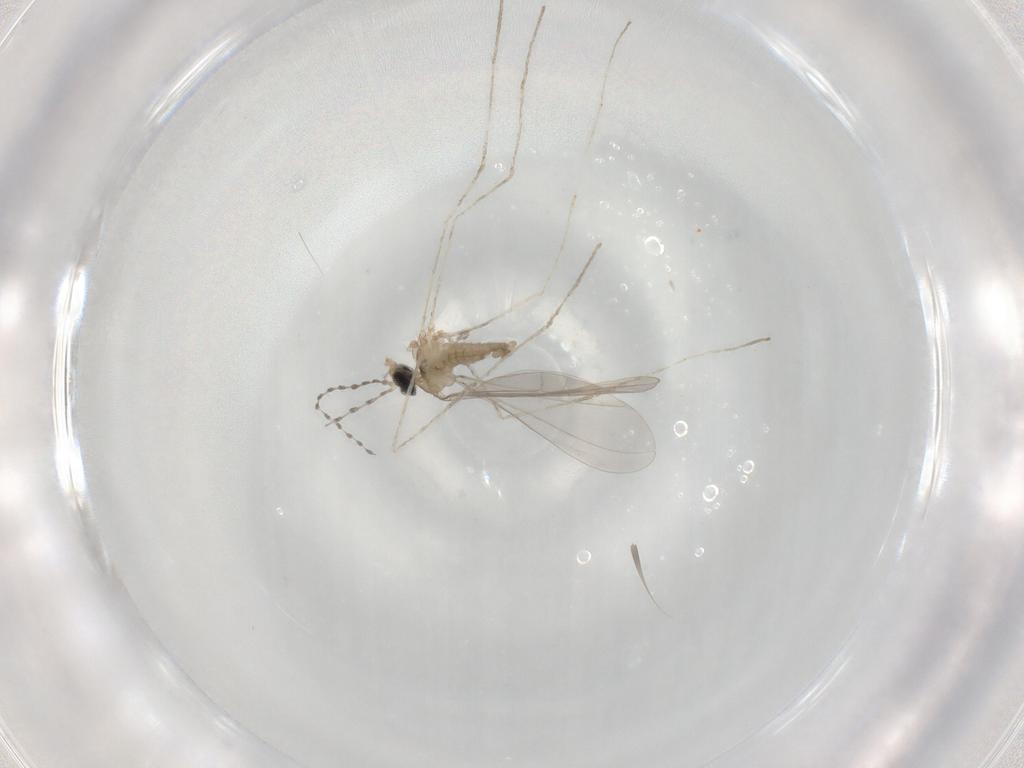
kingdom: Animalia
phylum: Arthropoda
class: Insecta
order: Diptera
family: Cecidomyiidae
